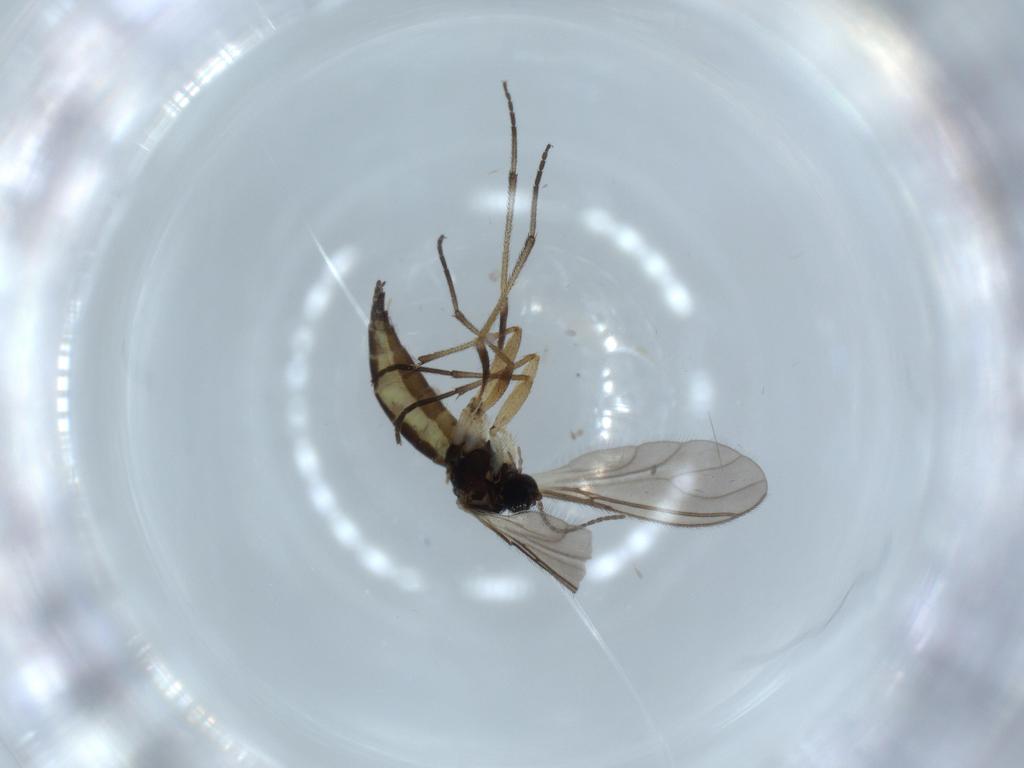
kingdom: Animalia
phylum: Arthropoda
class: Insecta
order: Diptera
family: Sciaridae
